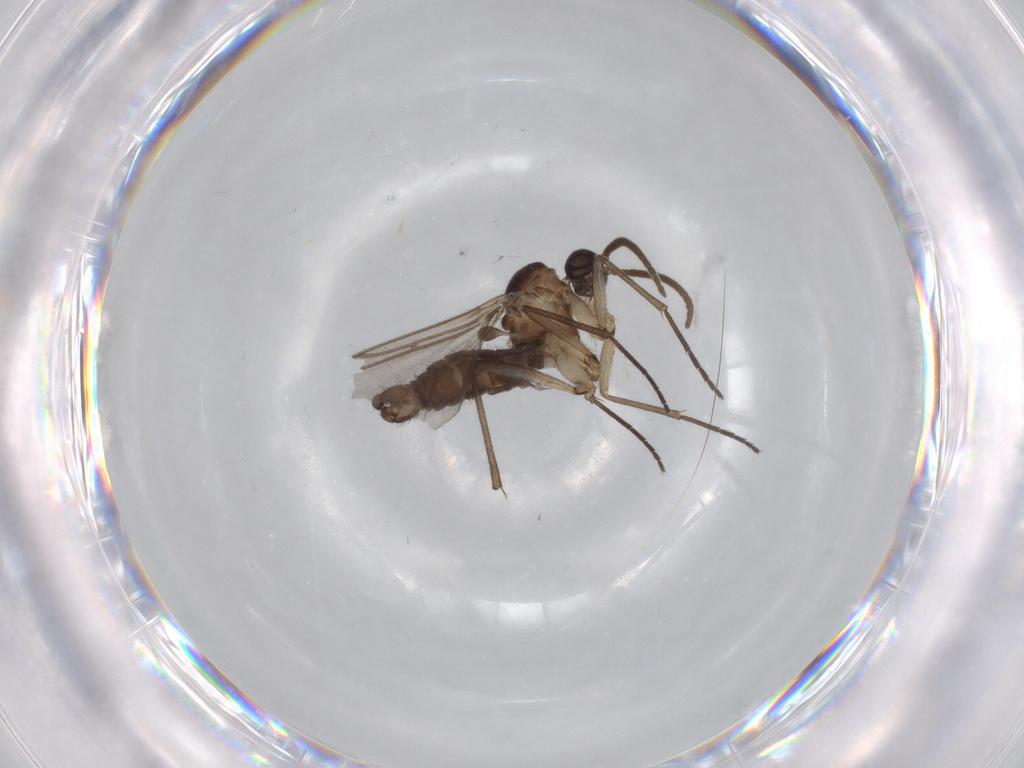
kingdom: Animalia
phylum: Arthropoda
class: Insecta
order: Diptera
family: Sciaridae
